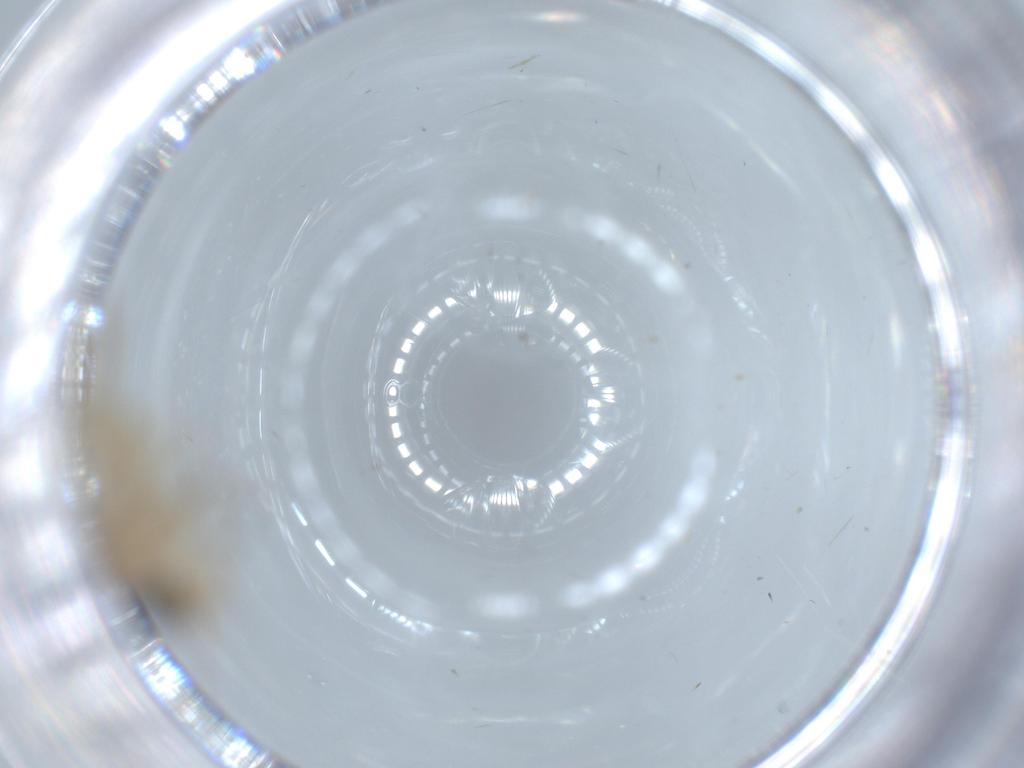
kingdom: Animalia
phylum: Arthropoda
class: Insecta
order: Psocodea
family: Caeciliusidae
